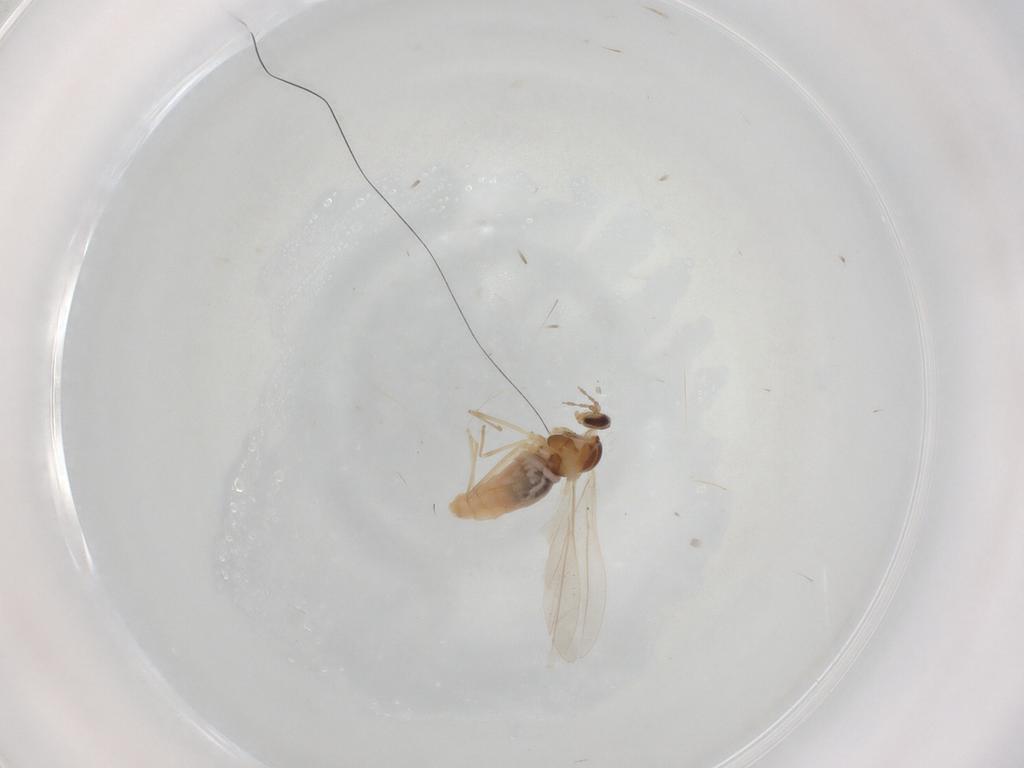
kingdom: Animalia
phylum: Arthropoda
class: Insecta
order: Diptera
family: Cecidomyiidae
